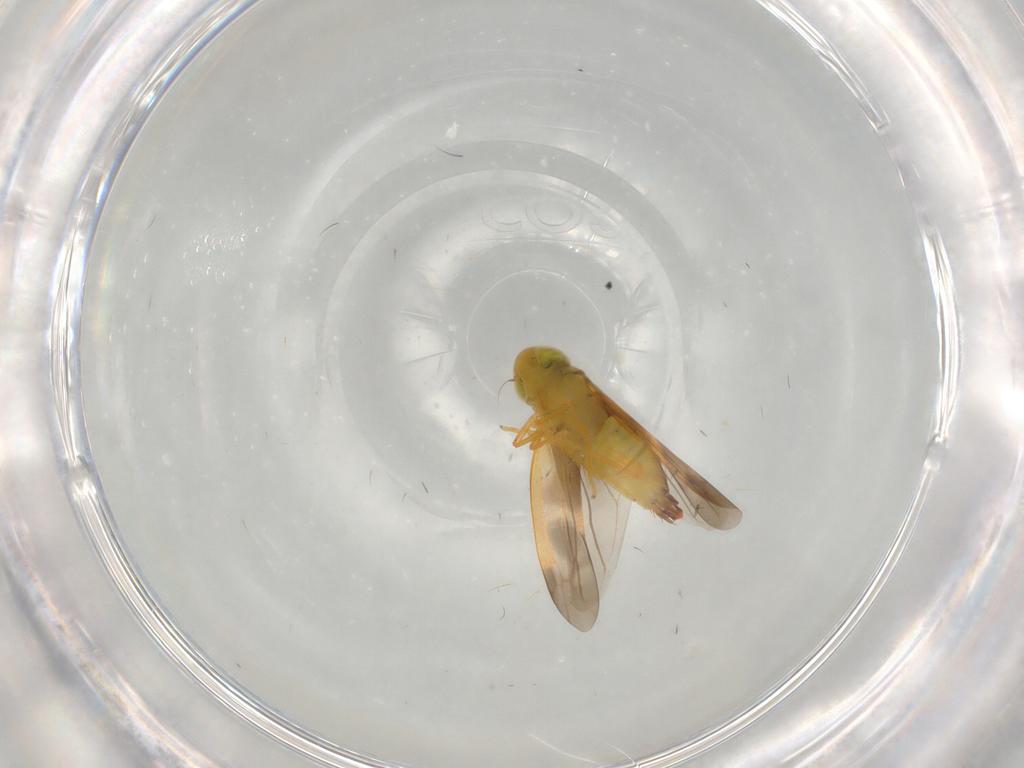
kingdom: Animalia
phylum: Arthropoda
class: Insecta
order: Hemiptera
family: Cicadellidae
